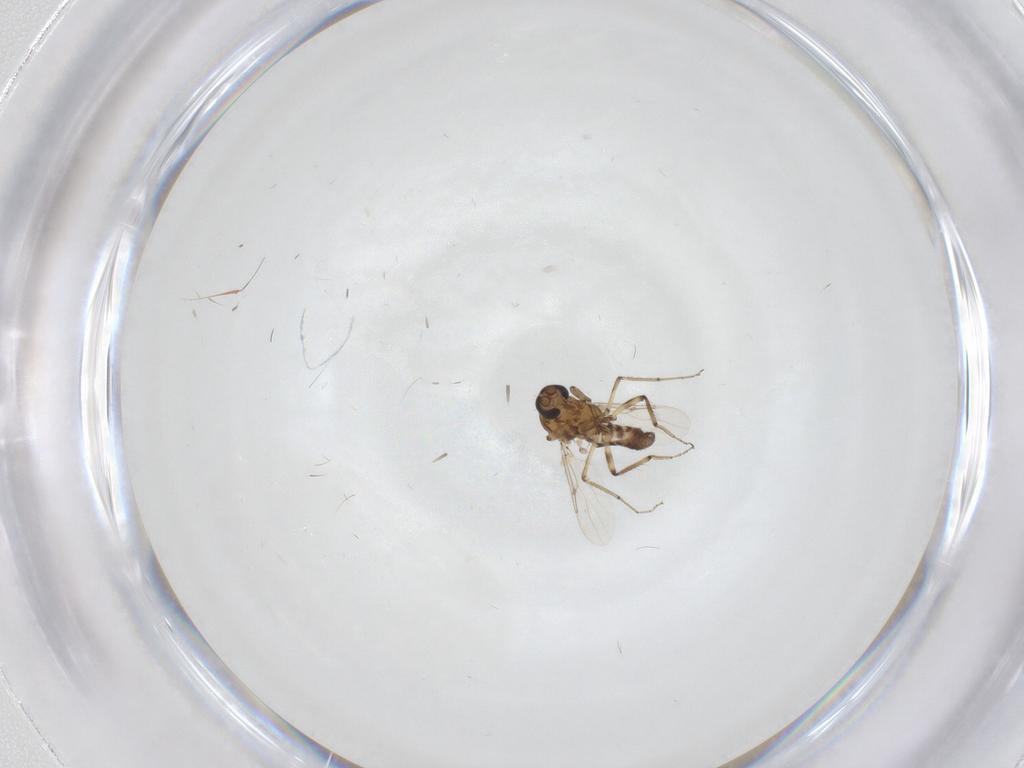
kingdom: Animalia
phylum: Arthropoda
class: Insecta
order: Diptera
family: Ceratopogonidae
